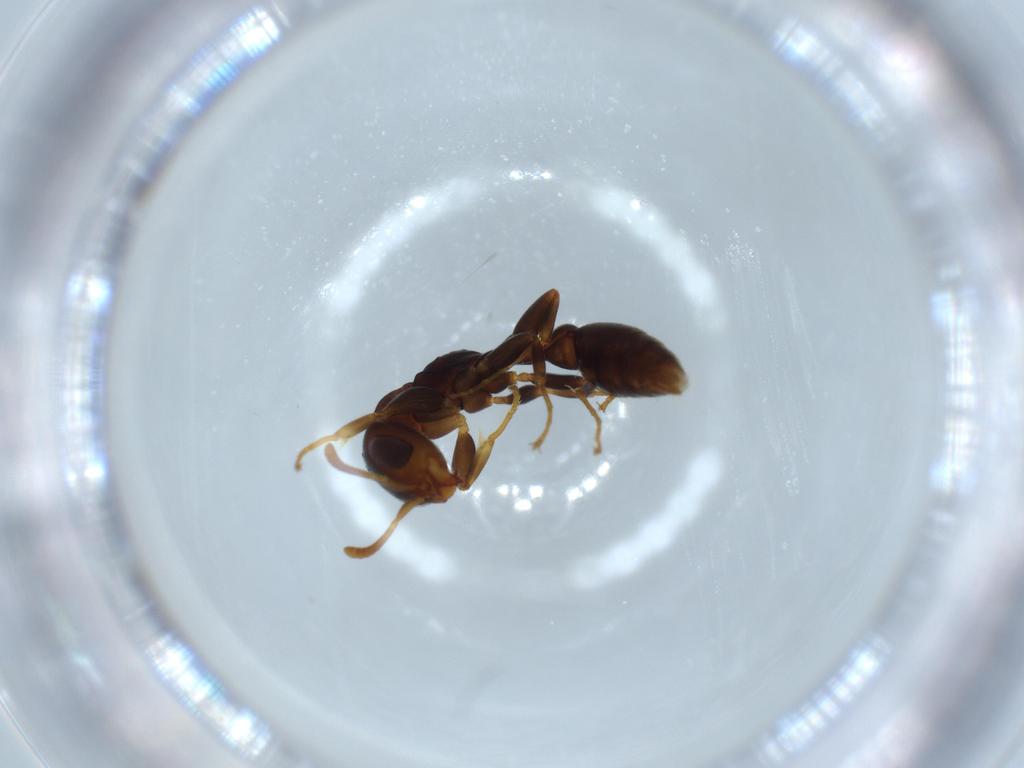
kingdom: Animalia
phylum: Arthropoda
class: Insecta
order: Hymenoptera
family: Formicidae
